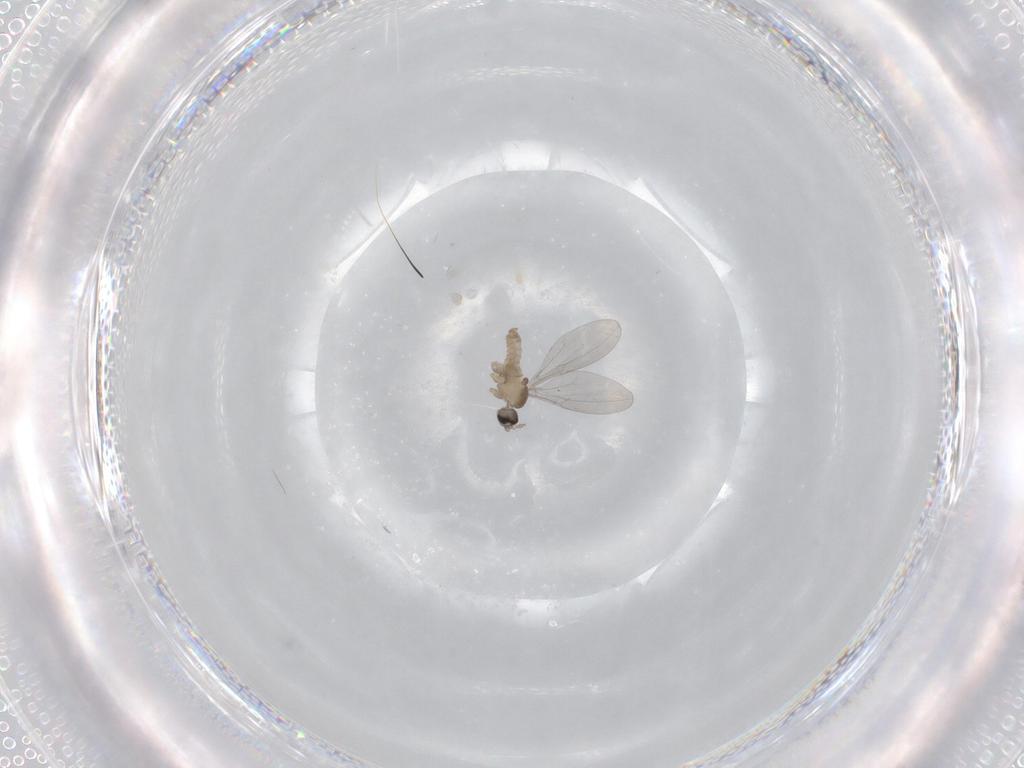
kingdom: Animalia
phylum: Arthropoda
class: Insecta
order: Diptera
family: Cecidomyiidae
